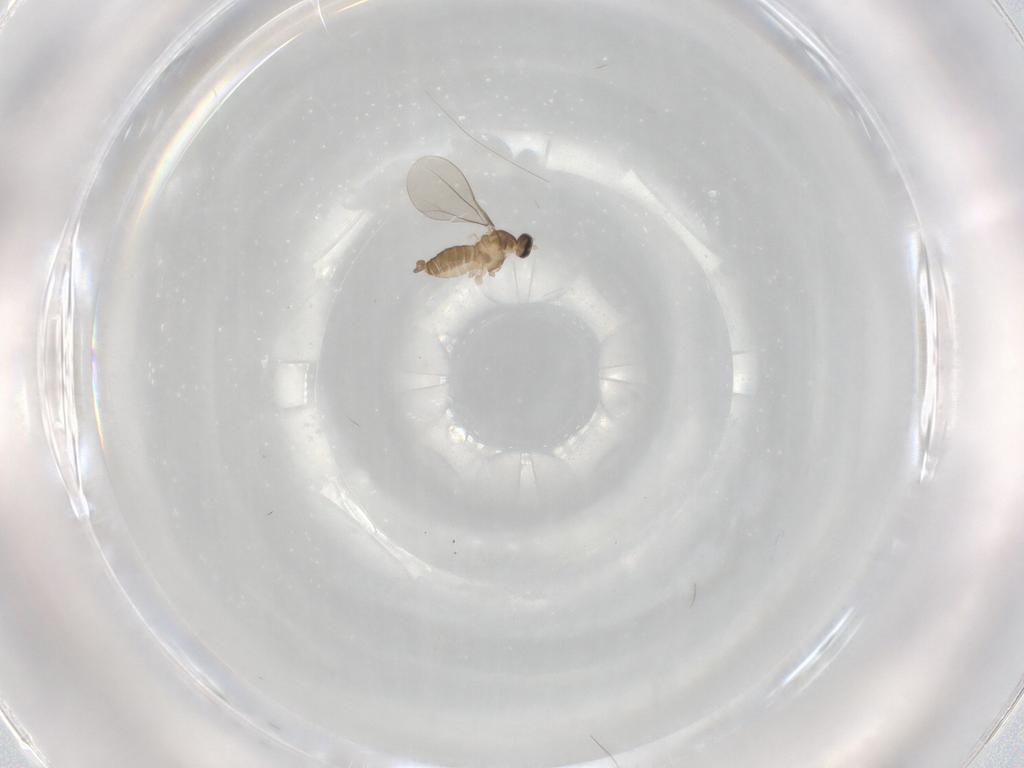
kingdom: Animalia
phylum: Arthropoda
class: Insecta
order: Diptera
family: Cecidomyiidae
